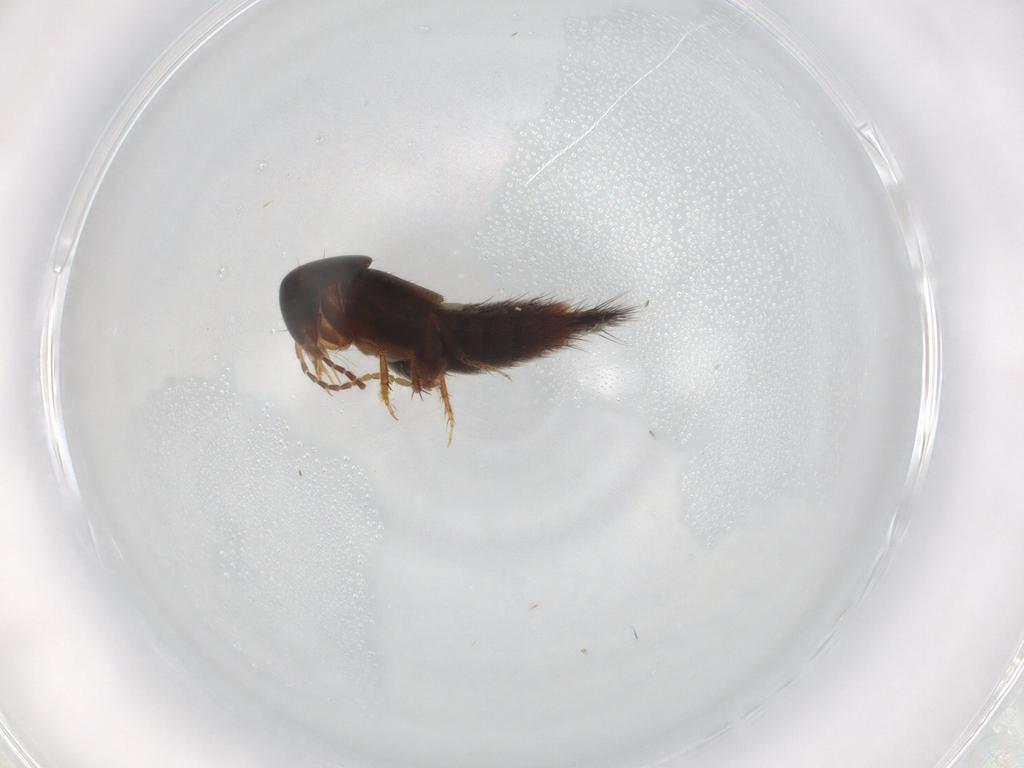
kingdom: Animalia
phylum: Arthropoda
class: Insecta
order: Coleoptera
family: Staphylinidae
